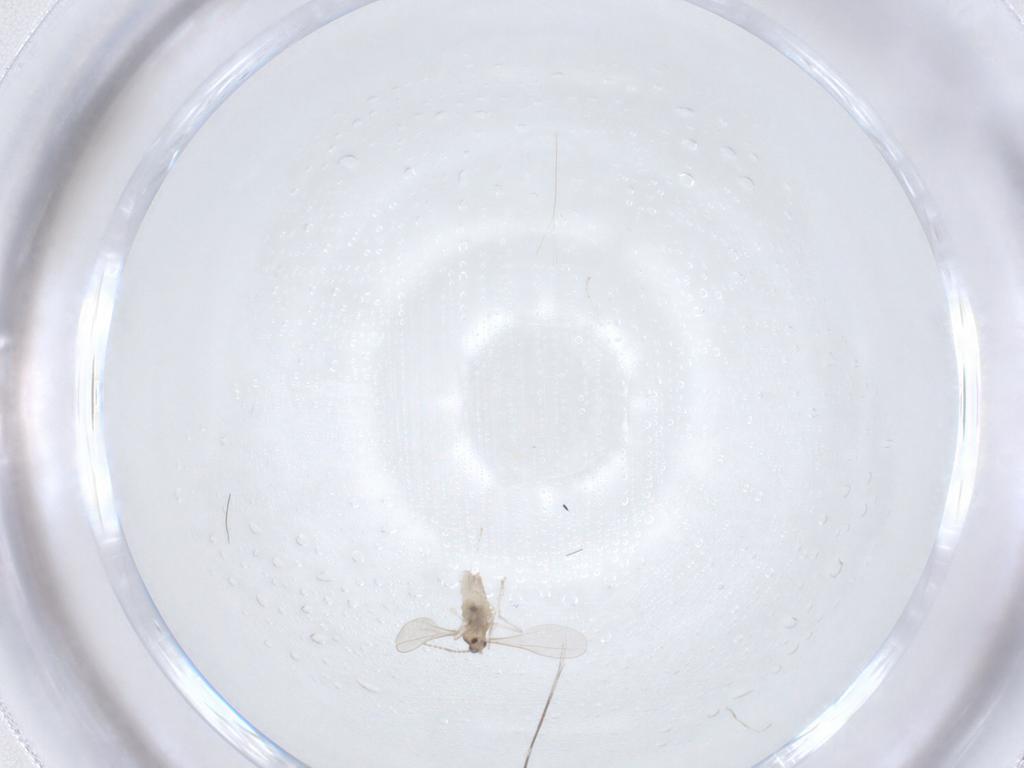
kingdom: Animalia
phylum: Arthropoda
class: Insecta
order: Diptera
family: Cecidomyiidae
